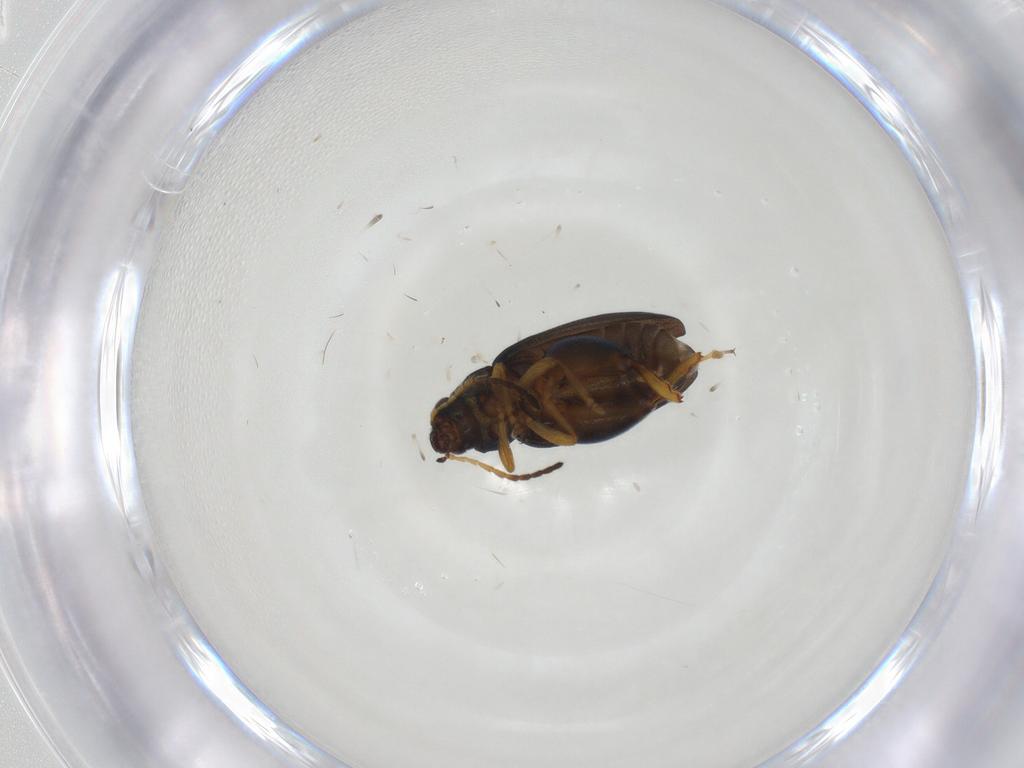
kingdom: Animalia
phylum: Arthropoda
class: Insecta
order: Coleoptera
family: Chrysomelidae
